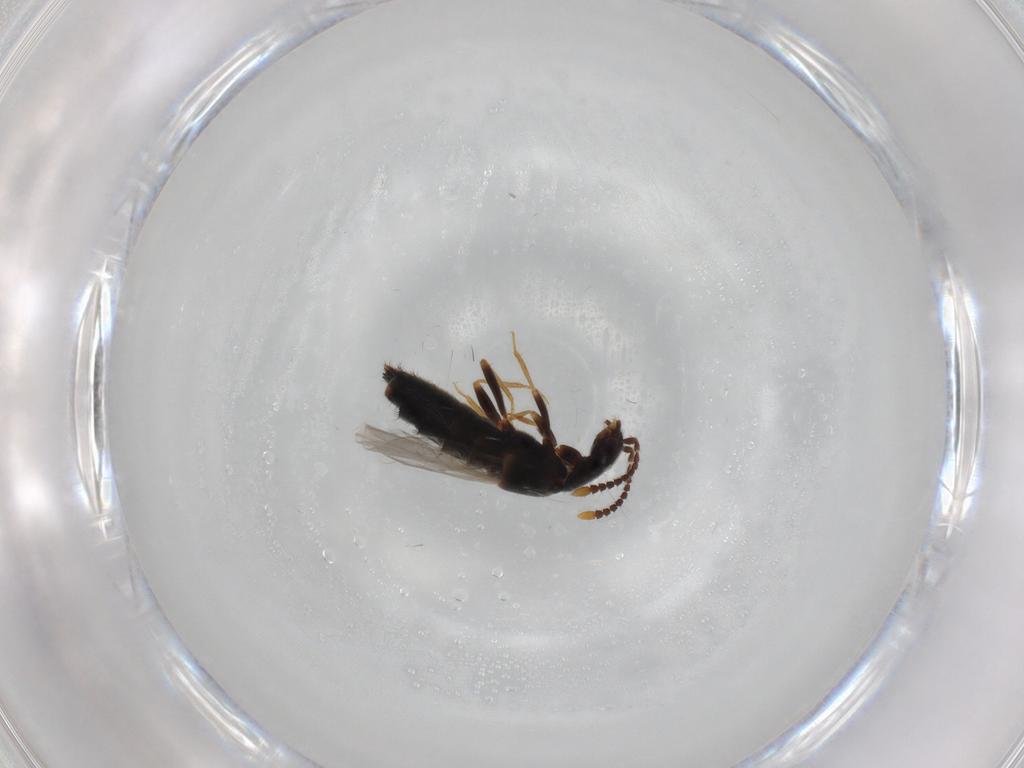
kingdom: Animalia
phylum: Arthropoda
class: Insecta
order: Coleoptera
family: Staphylinidae
